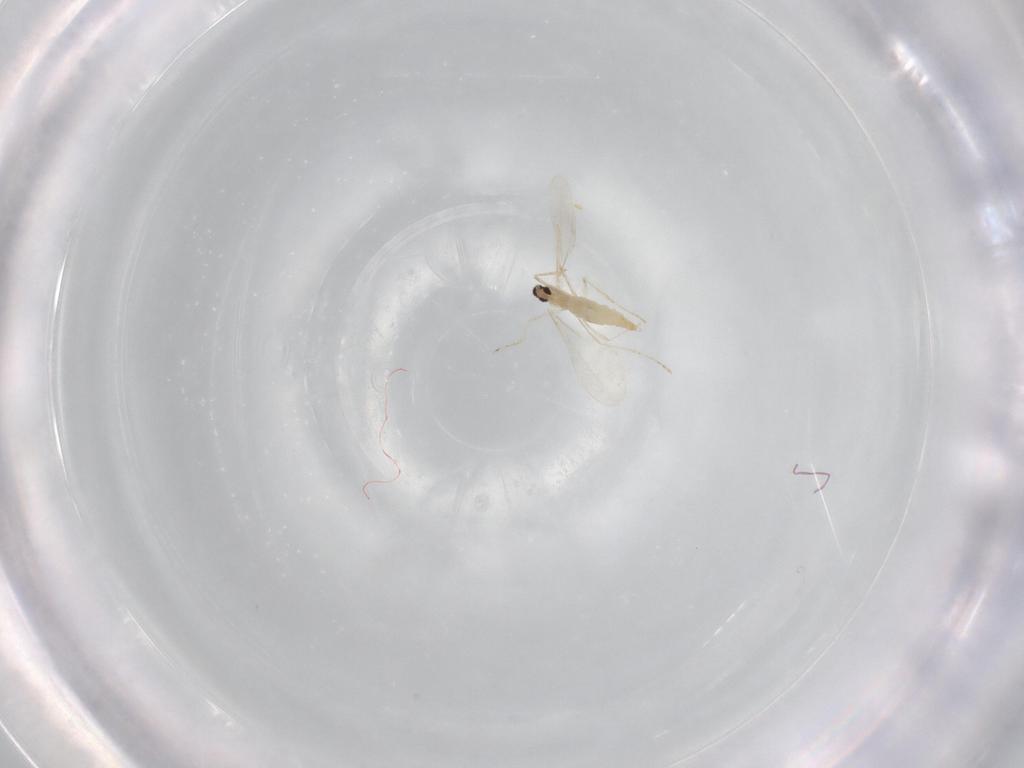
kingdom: Animalia
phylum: Arthropoda
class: Insecta
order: Diptera
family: Cecidomyiidae
